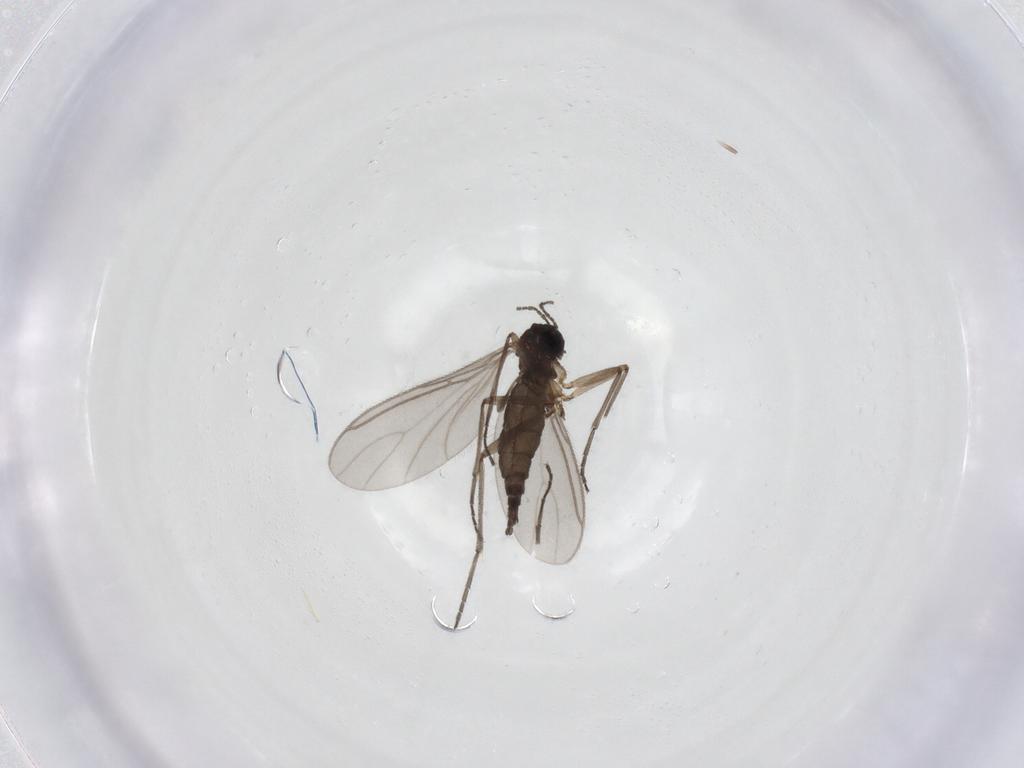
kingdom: Animalia
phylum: Arthropoda
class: Insecta
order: Diptera
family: Sciaridae
